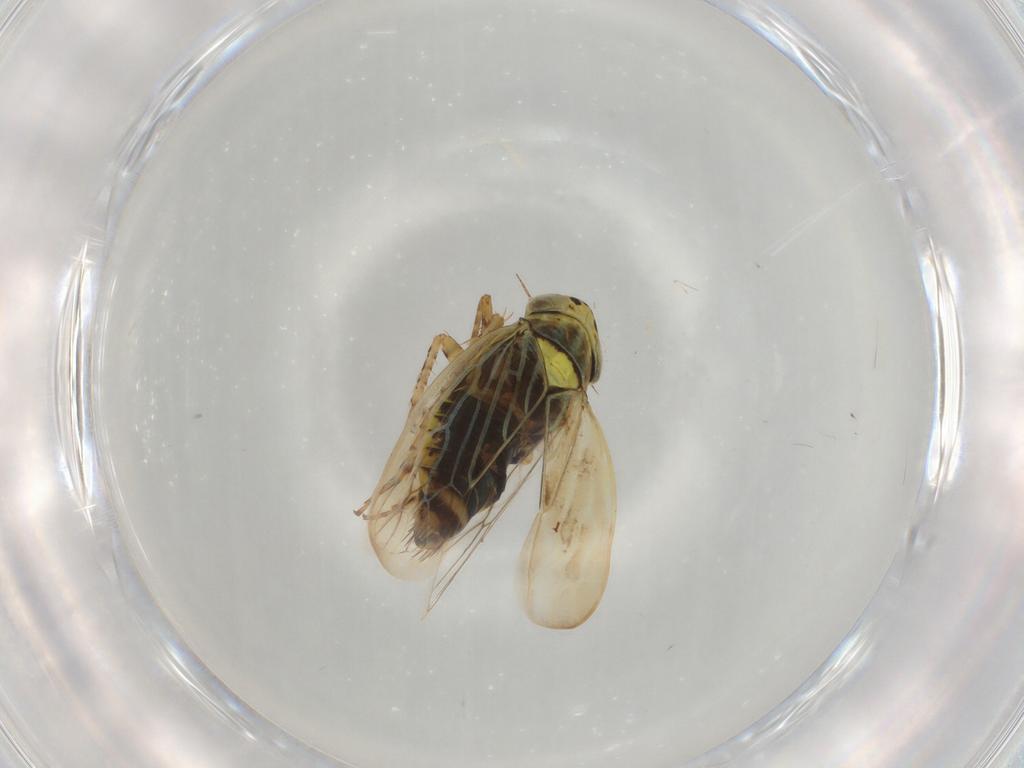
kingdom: Animalia
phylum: Arthropoda
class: Insecta
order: Hemiptera
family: Cicadellidae
